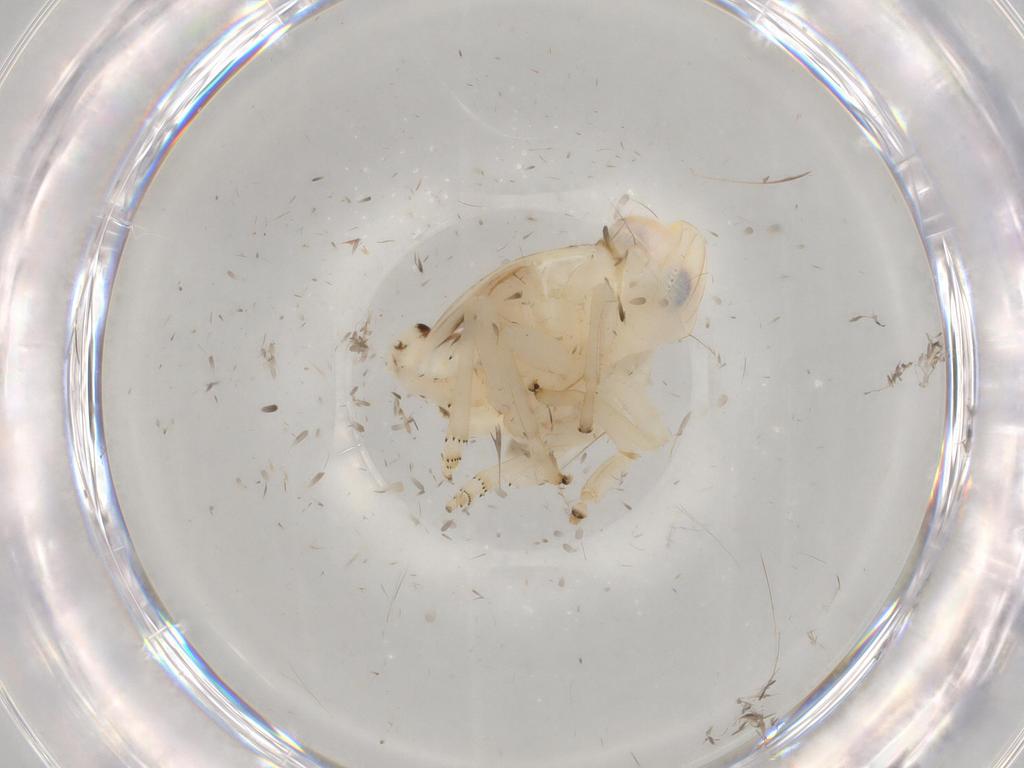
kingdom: Animalia
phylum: Arthropoda
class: Insecta
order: Hemiptera
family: Nogodinidae
